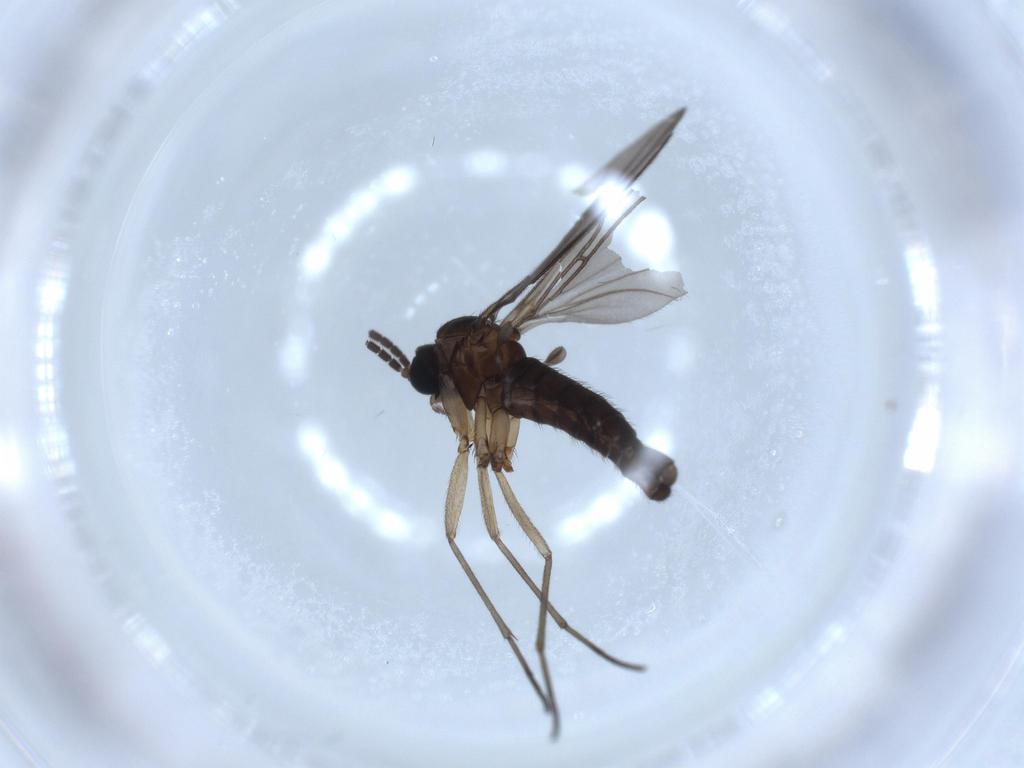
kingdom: Animalia
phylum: Arthropoda
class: Insecta
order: Diptera
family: Sciaridae
